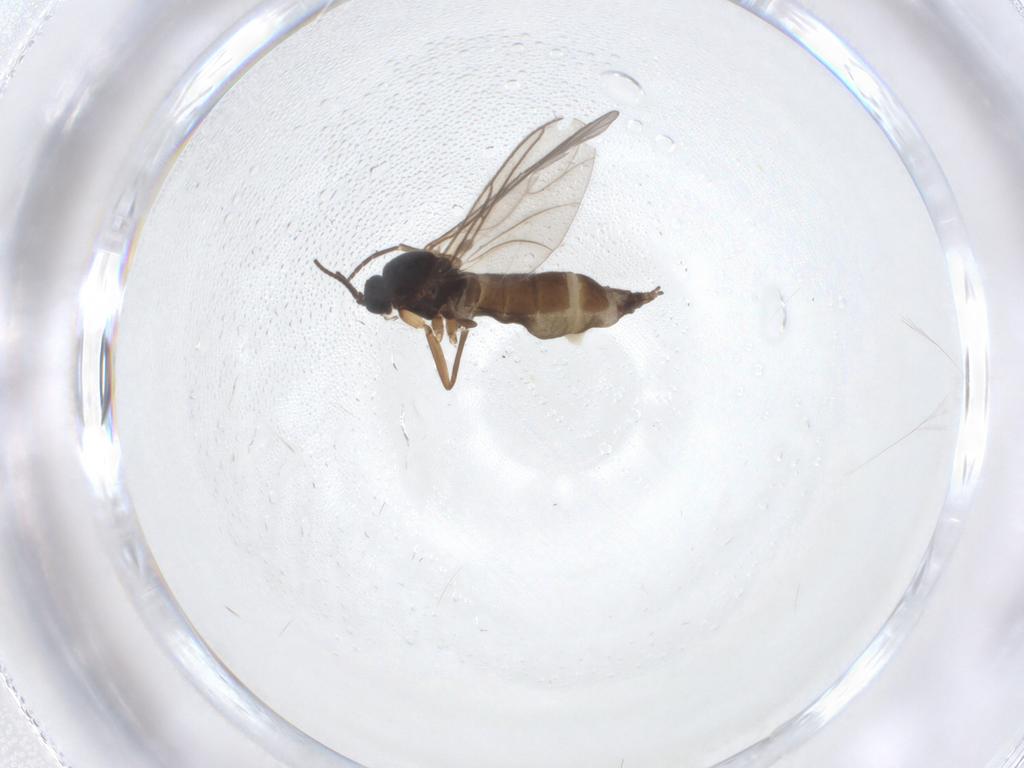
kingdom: Animalia
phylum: Arthropoda
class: Insecta
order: Diptera
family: Sciaridae
